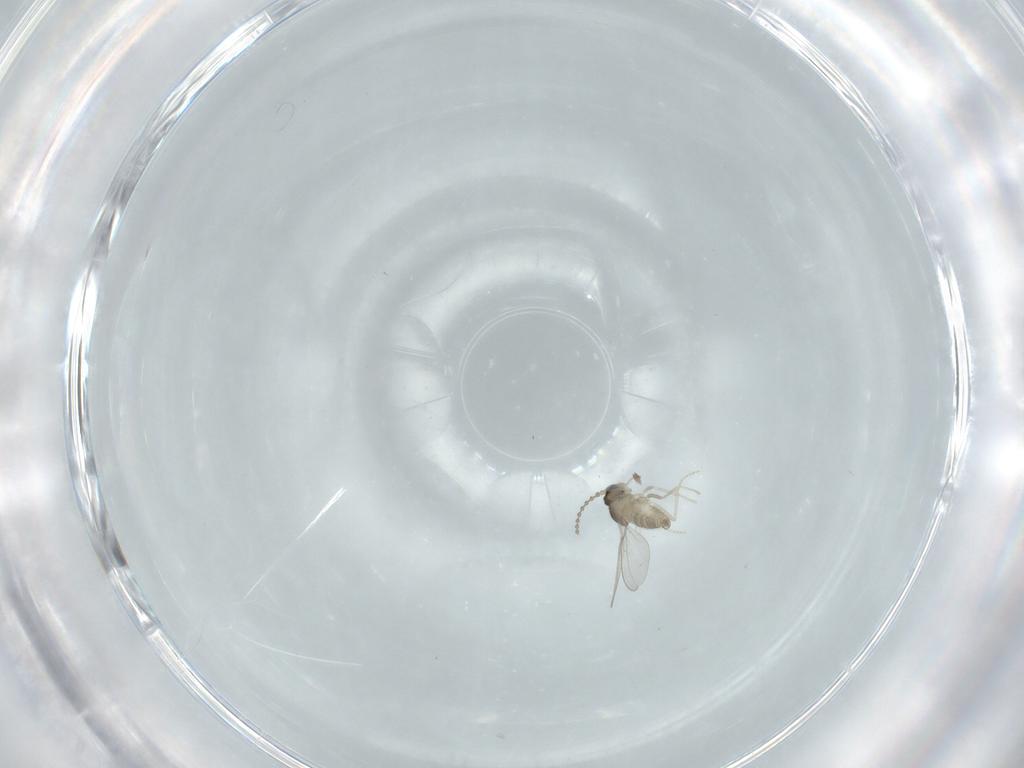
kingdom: Animalia
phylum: Arthropoda
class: Insecta
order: Diptera
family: Cecidomyiidae
